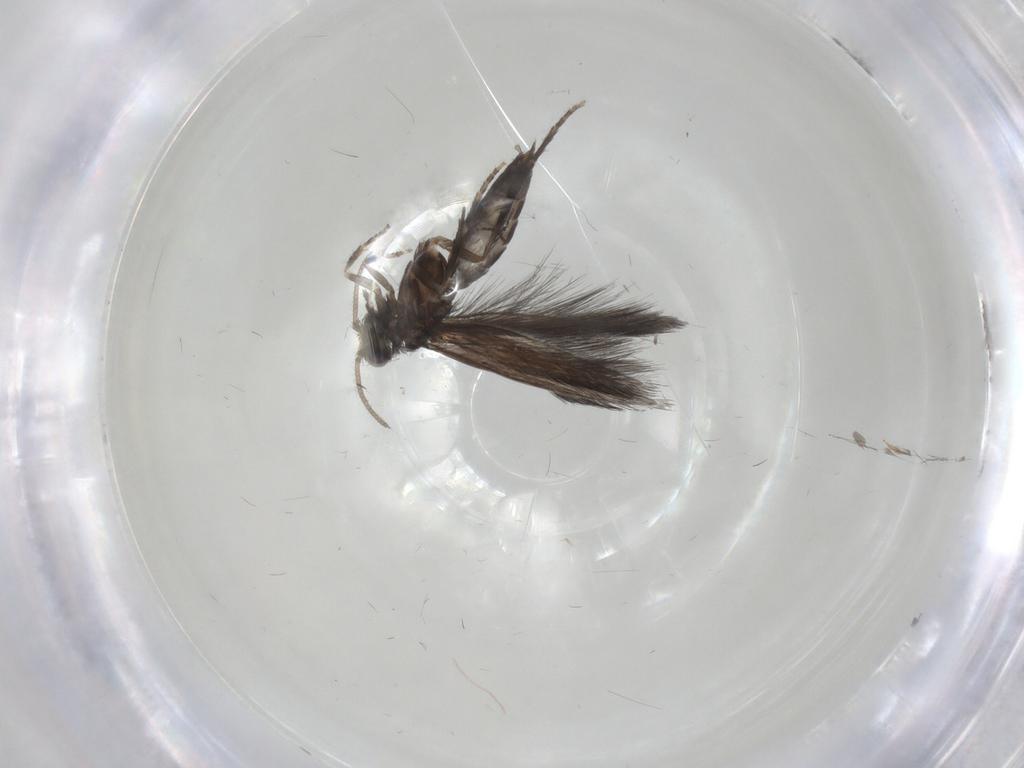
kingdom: Animalia
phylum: Arthropoda
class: Insecta
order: Trichoptera
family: Hydroptilidae
